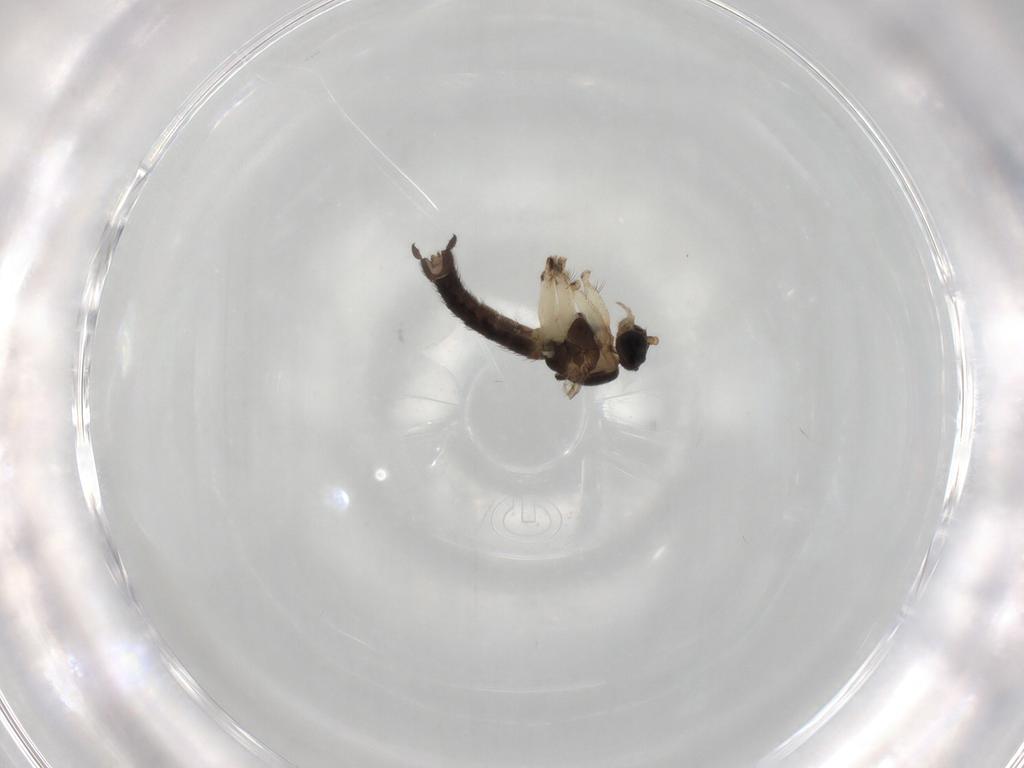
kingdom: Animalia
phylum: Arthropoda
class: Insecta
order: Diptera
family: Sciaridae
